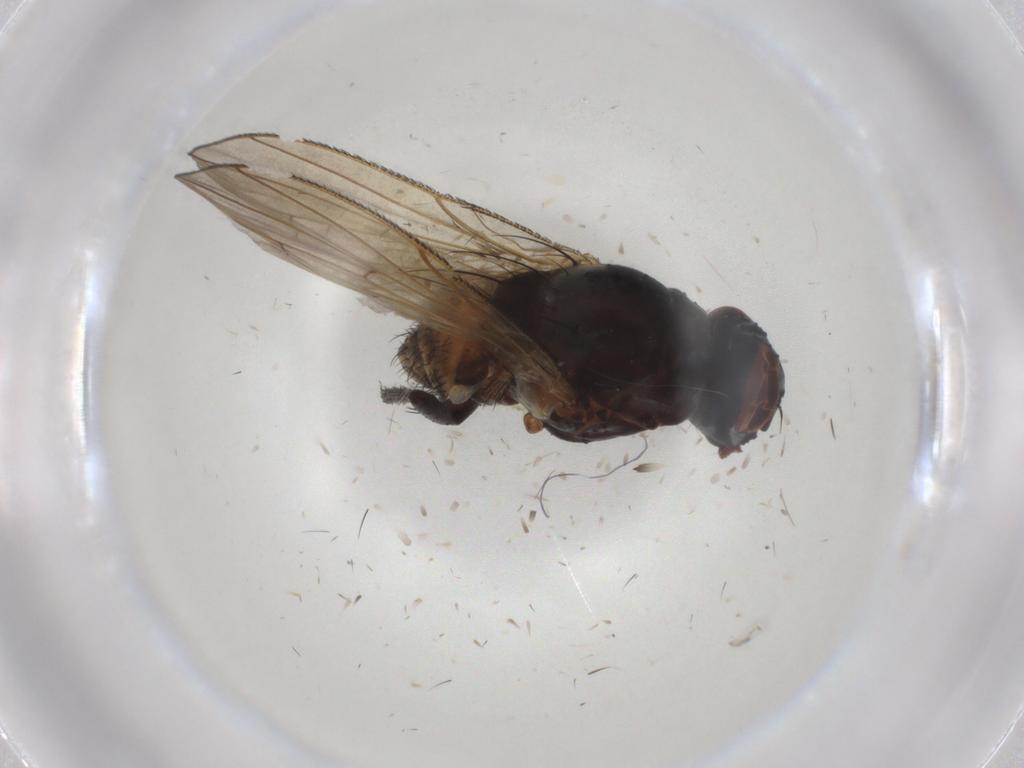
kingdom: Animalia
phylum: Arthropoda
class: Insecta
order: Diptera
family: Anthomyiidae
